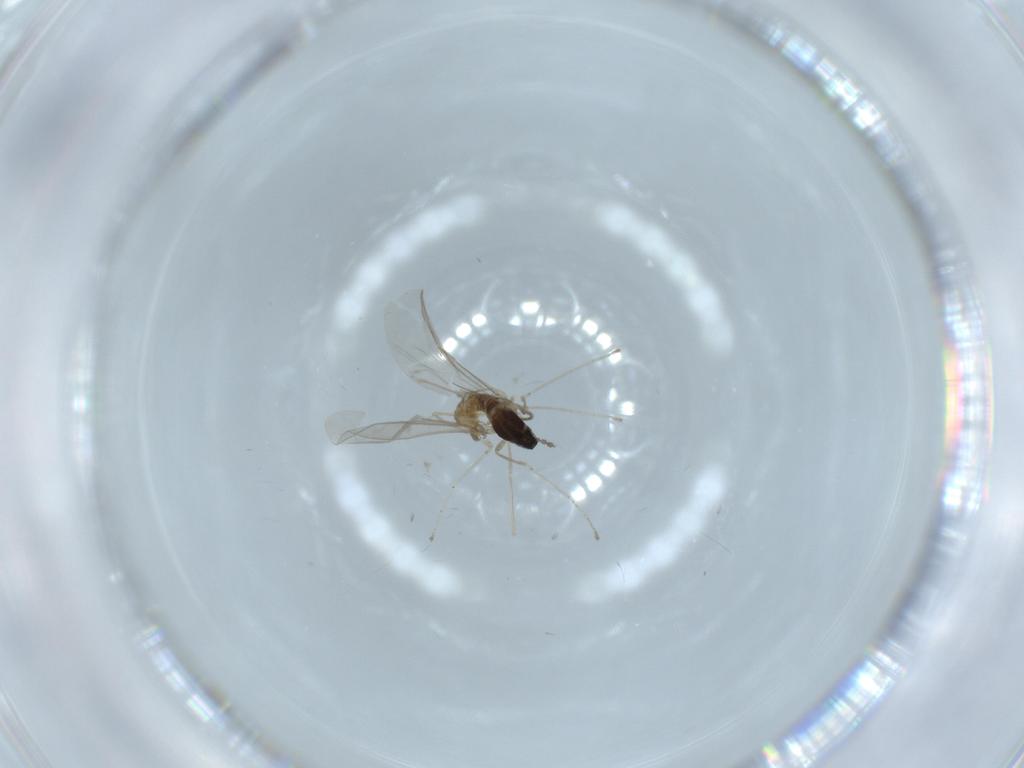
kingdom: Animalia
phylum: Arthropoda
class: Insecta
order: Diptera
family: Cecidomyiidae
